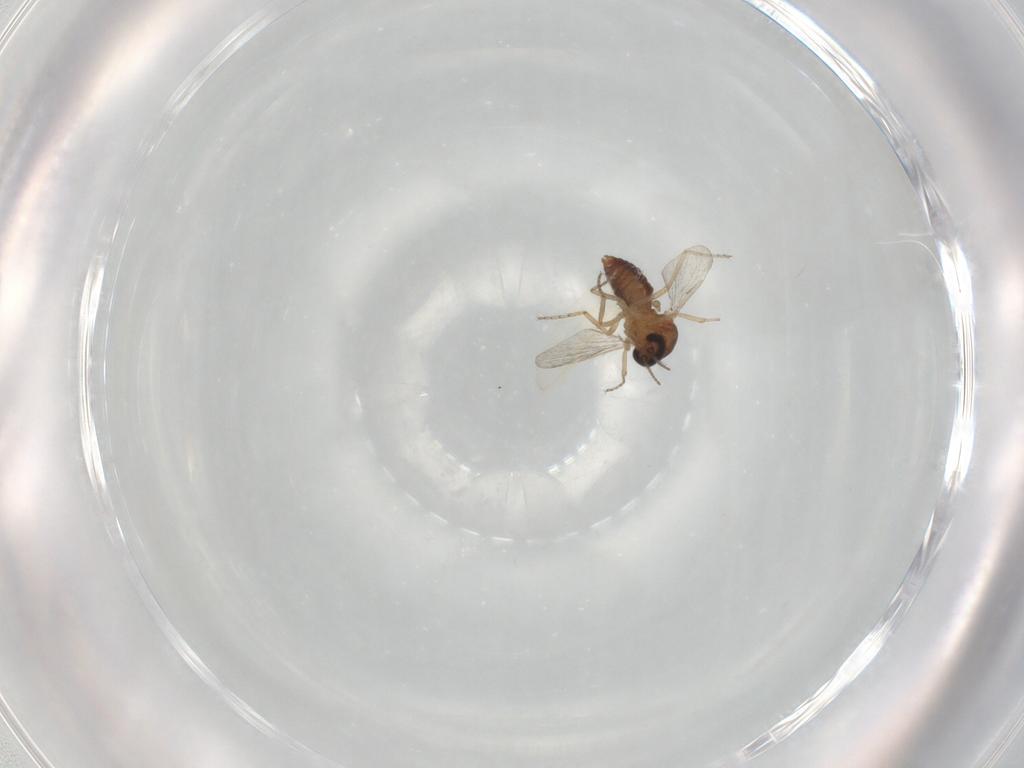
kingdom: Animalia
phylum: Arthropoda
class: Insecta
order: Diptera
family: Ceratopogonidae
